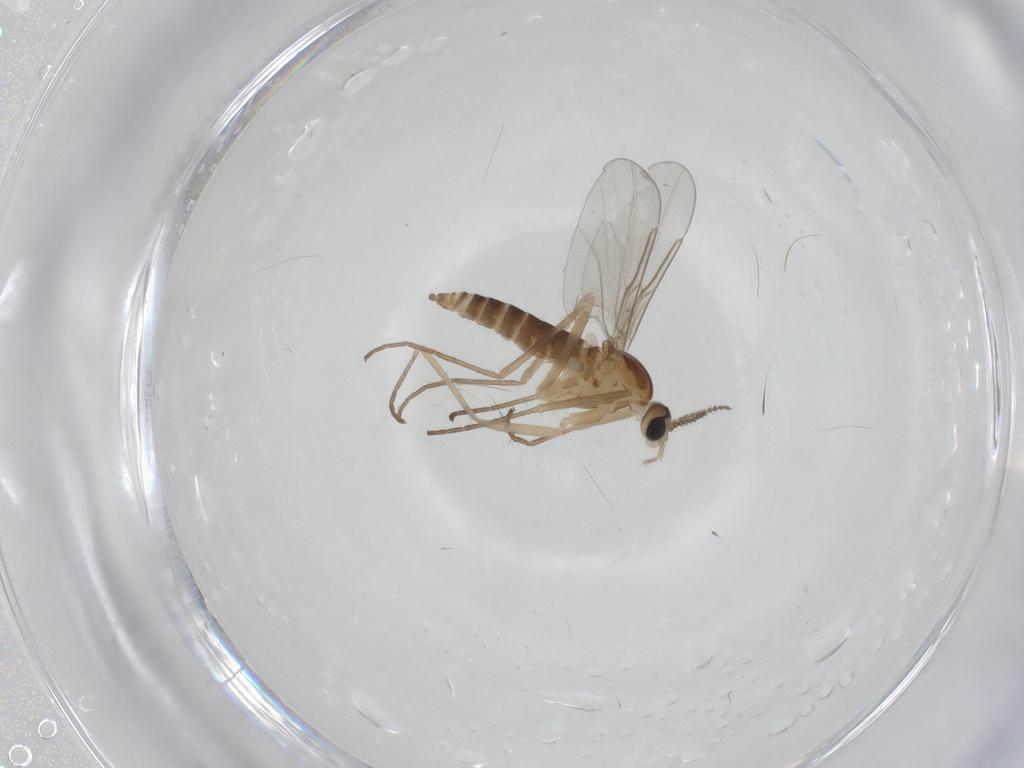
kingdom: Animalia
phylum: Arthropoda
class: Insecta
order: Diptera
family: Cecidomyiidae
